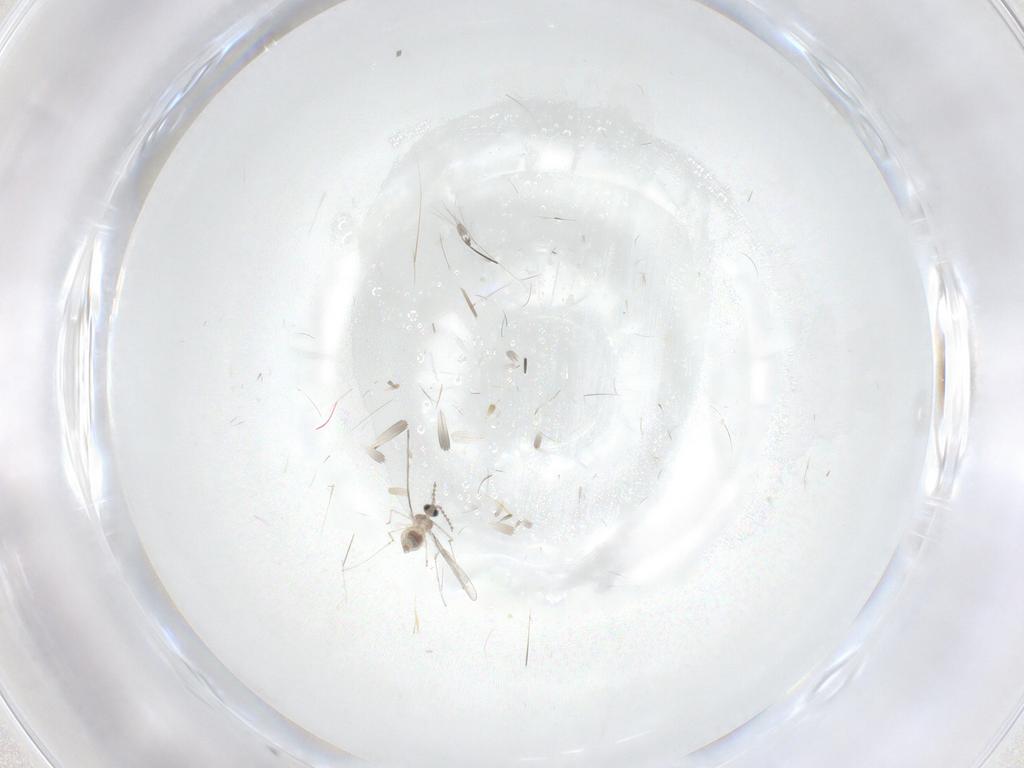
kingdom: Animalia
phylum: Arthropoda
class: Insecta
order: Diptera
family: Cecidomyiidae
